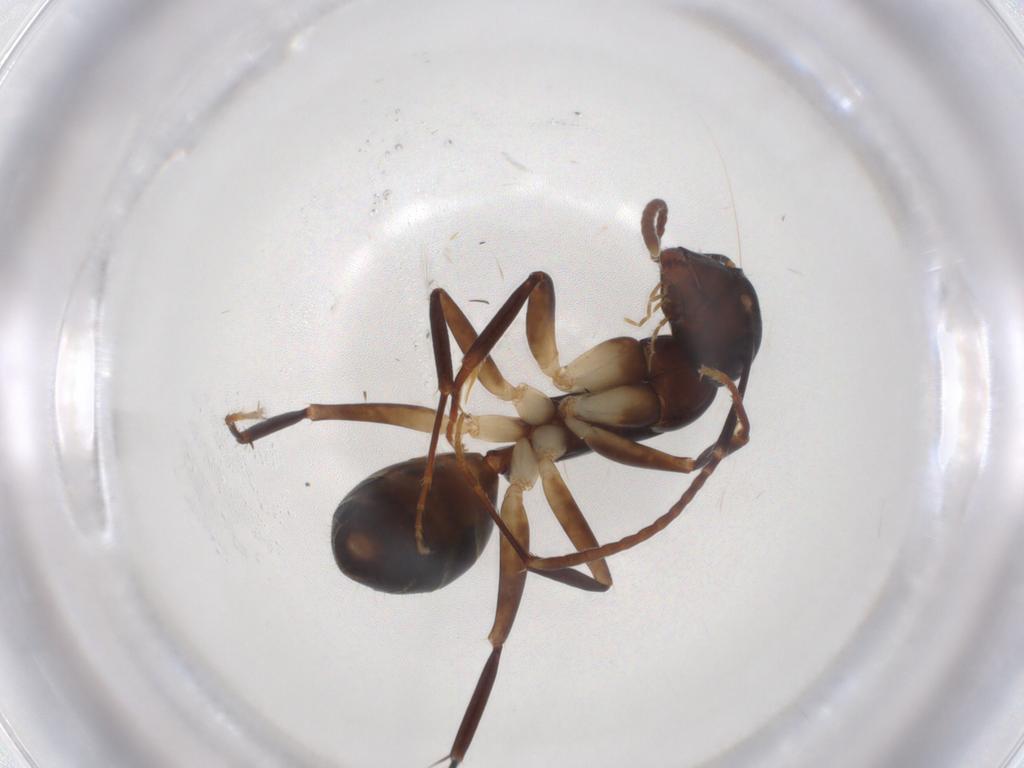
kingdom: Animalia
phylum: Arthropoda
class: Insecta
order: Hymenoptera
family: Formicidae
